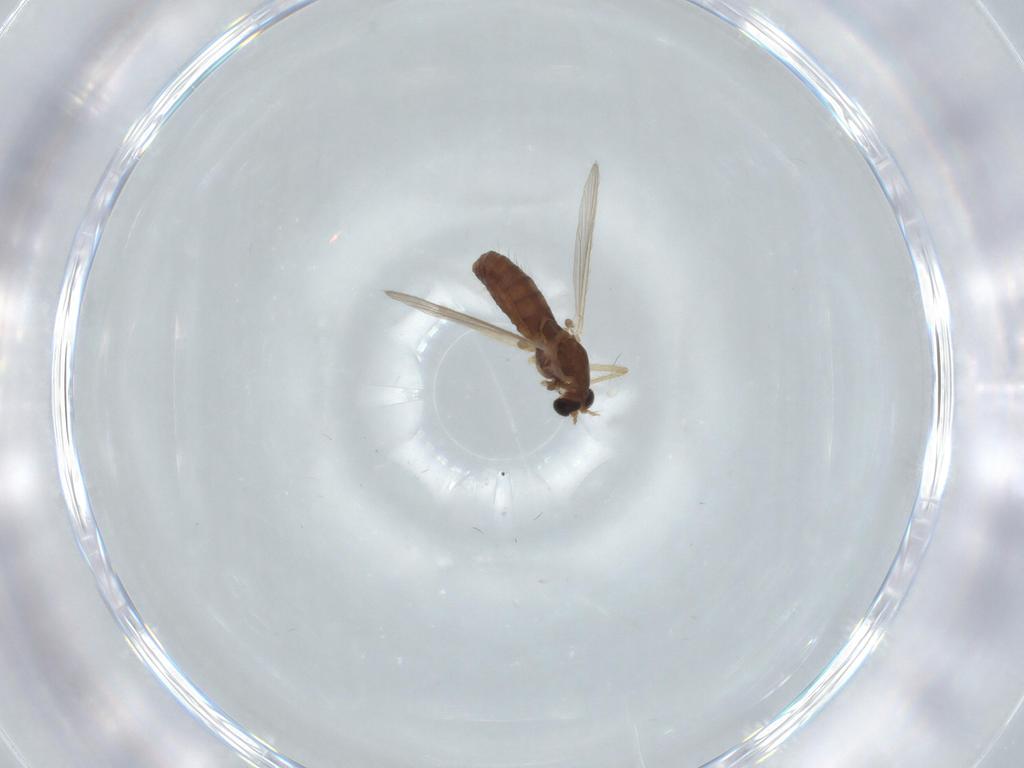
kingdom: Animalia
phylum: Arthropoda
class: Insecta
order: Diptera
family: Chironomidae
